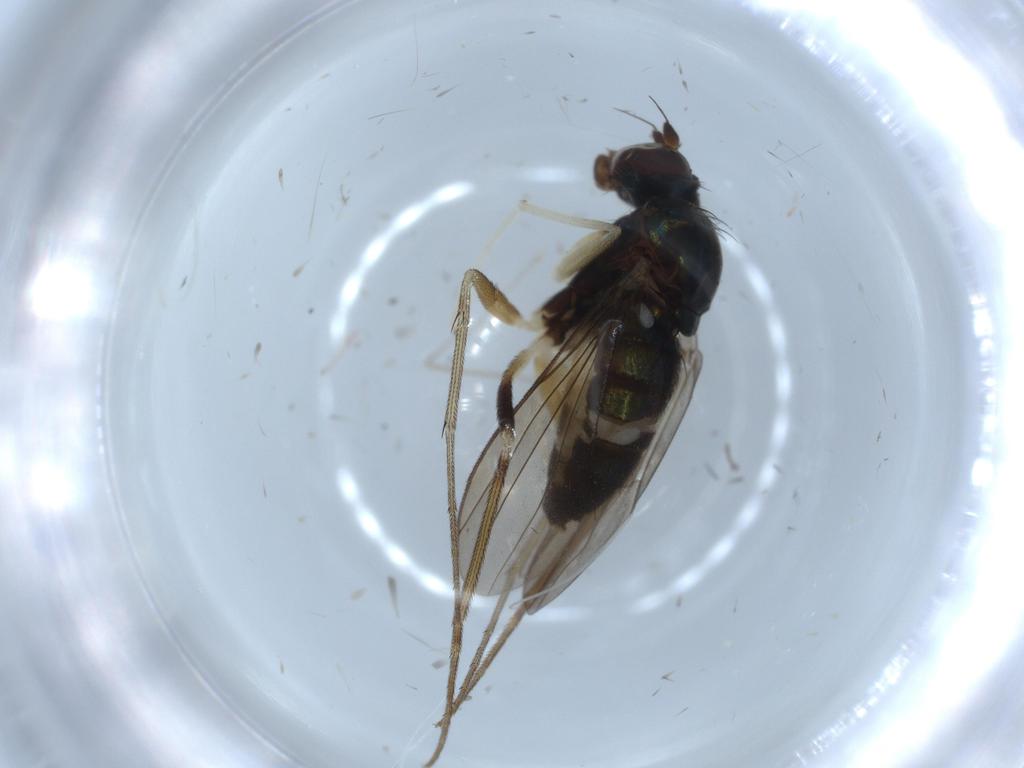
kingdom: Animalia
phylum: Arthropoda
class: Insecta
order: Diptera
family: Dolichopodidae
